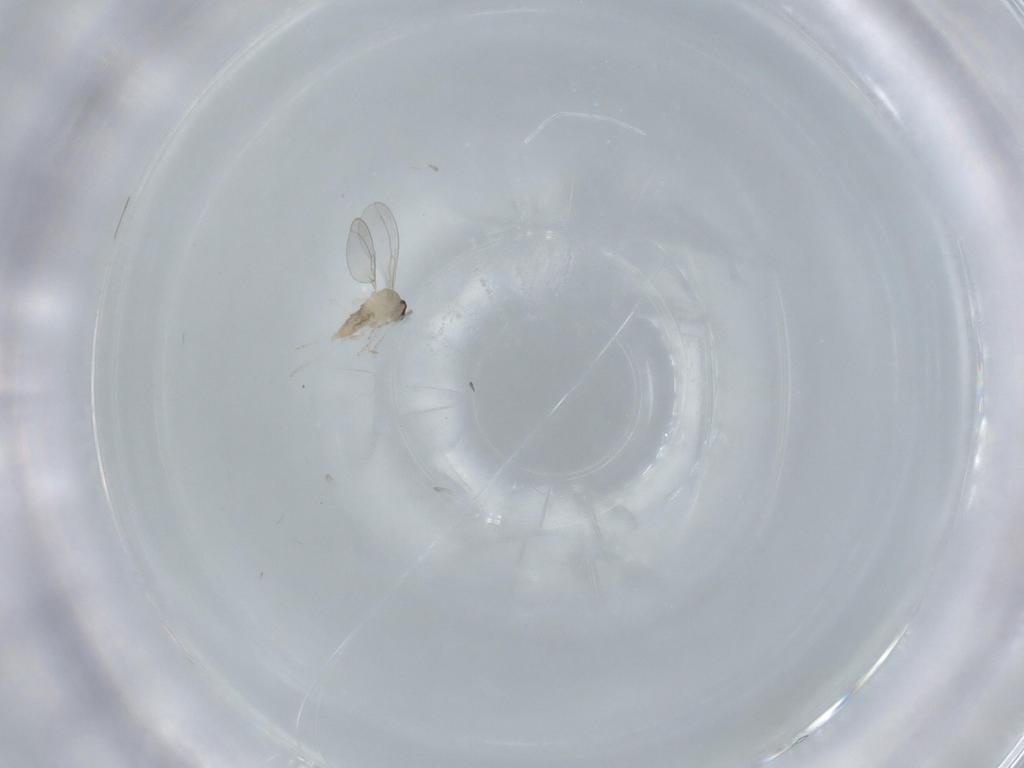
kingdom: Animalia
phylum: Arthropoda
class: Insecta
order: Diptera
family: Cecidomyiidae
